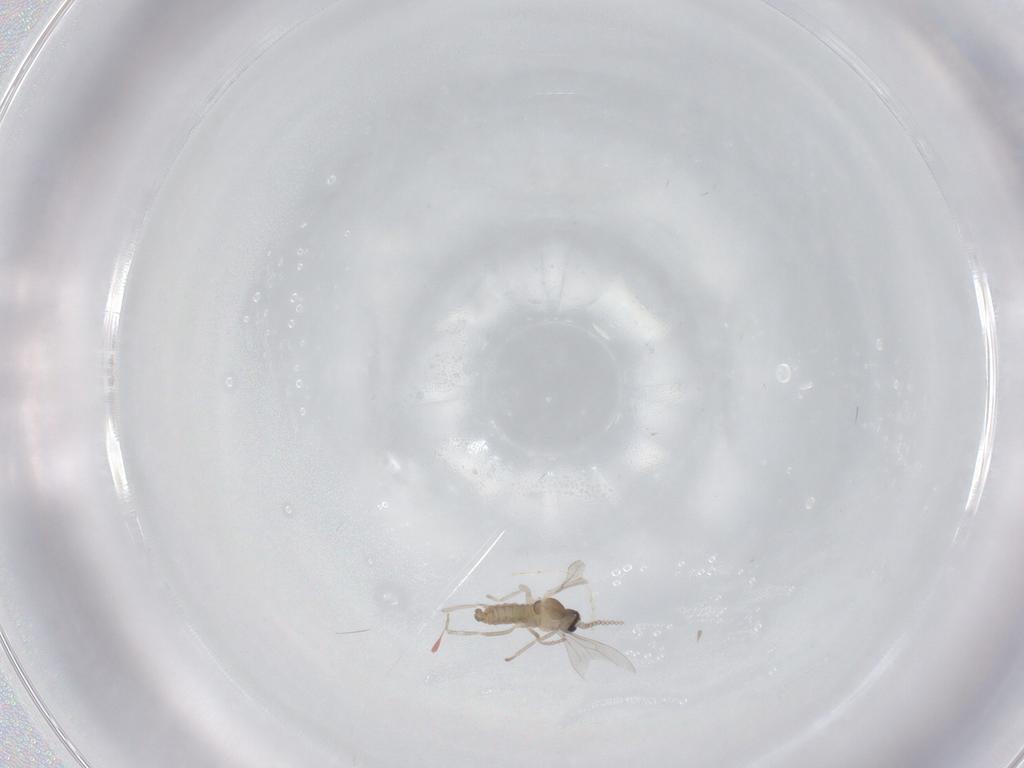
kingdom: Animalia
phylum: Arthropoda
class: Insecta
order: Diptera
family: Cecidomyiidae
